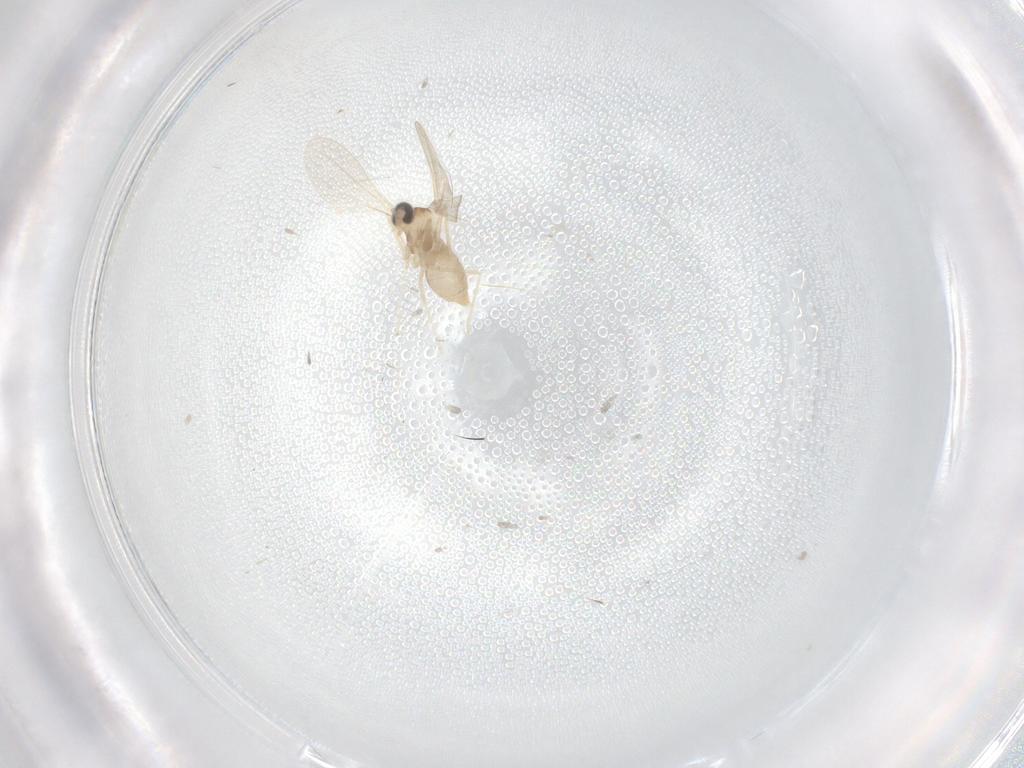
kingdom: Animalia
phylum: Arthropoda
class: Insecta
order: Diptera
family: Cecidomyiidae
